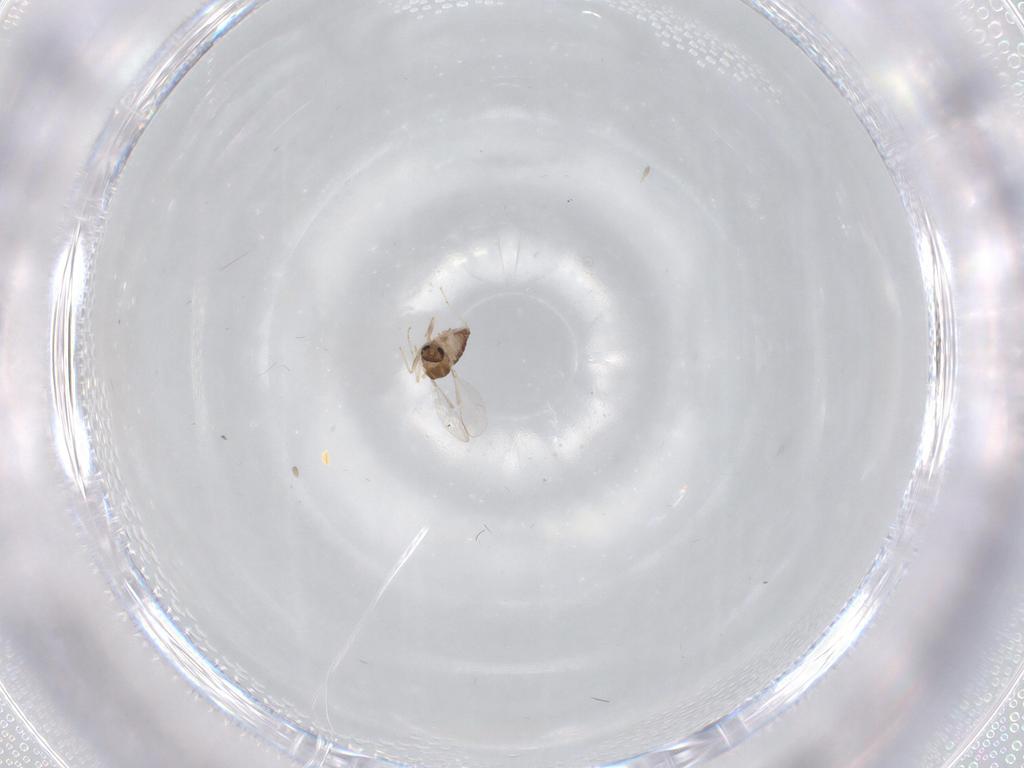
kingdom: Animalia
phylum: Arthropoda
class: Insecta
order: Diptera
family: Chironomidae
